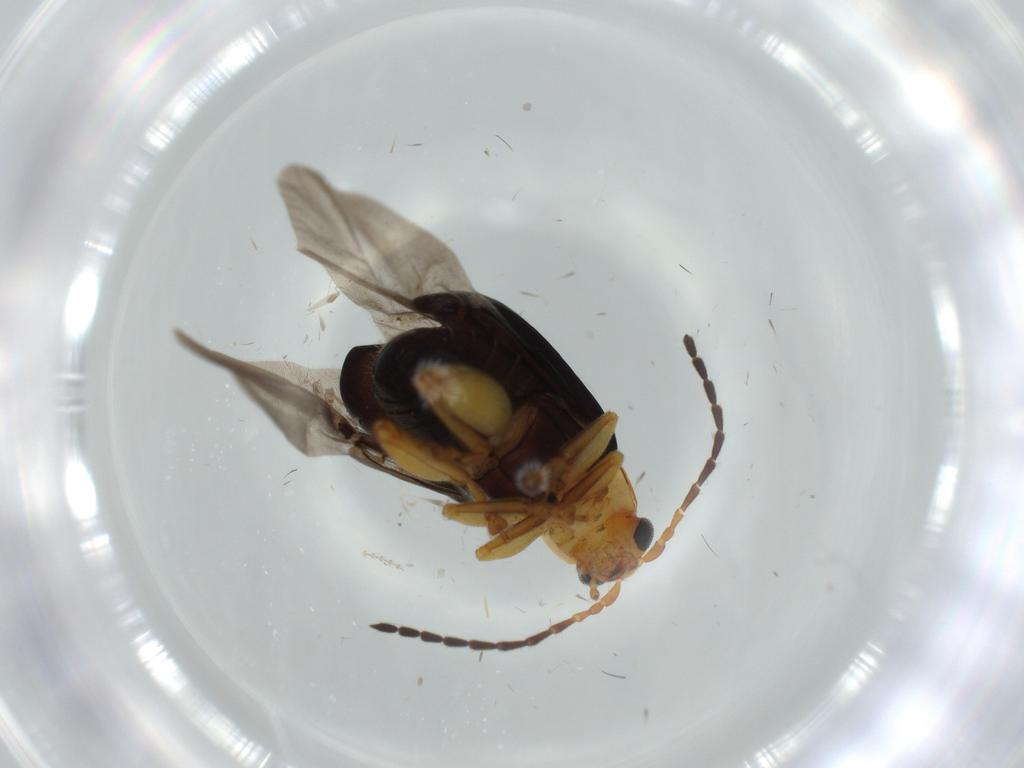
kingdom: Animalia
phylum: Arthropoda
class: Insecta
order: Coleoptera
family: Chrysomelidae
